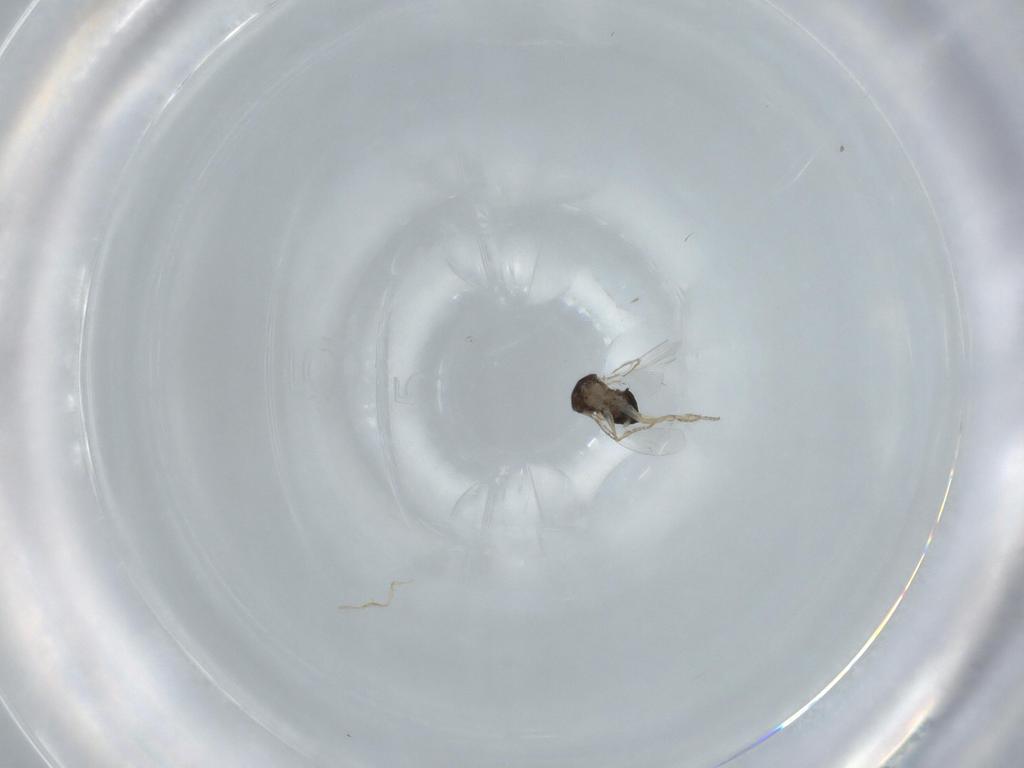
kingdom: Animalia
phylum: Arthropoda
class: Insecta
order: Diptera
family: Phoridae
